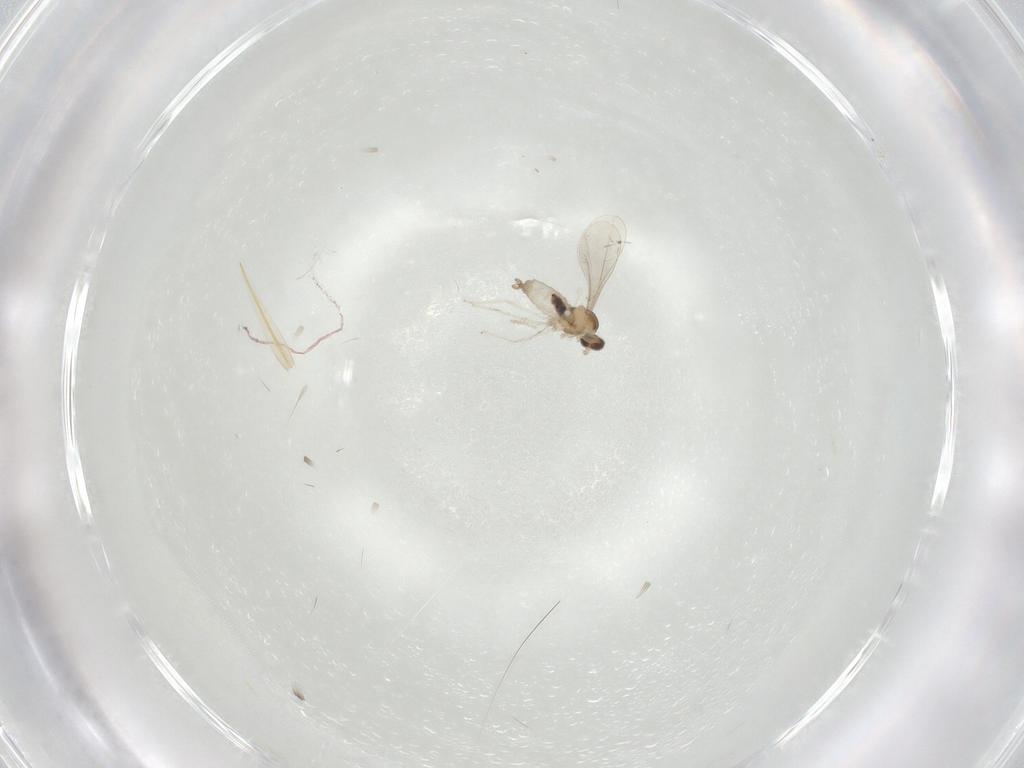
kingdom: Animalia
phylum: Arthropoda
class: Insecta
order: Diptera
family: Cecidomyiidae
